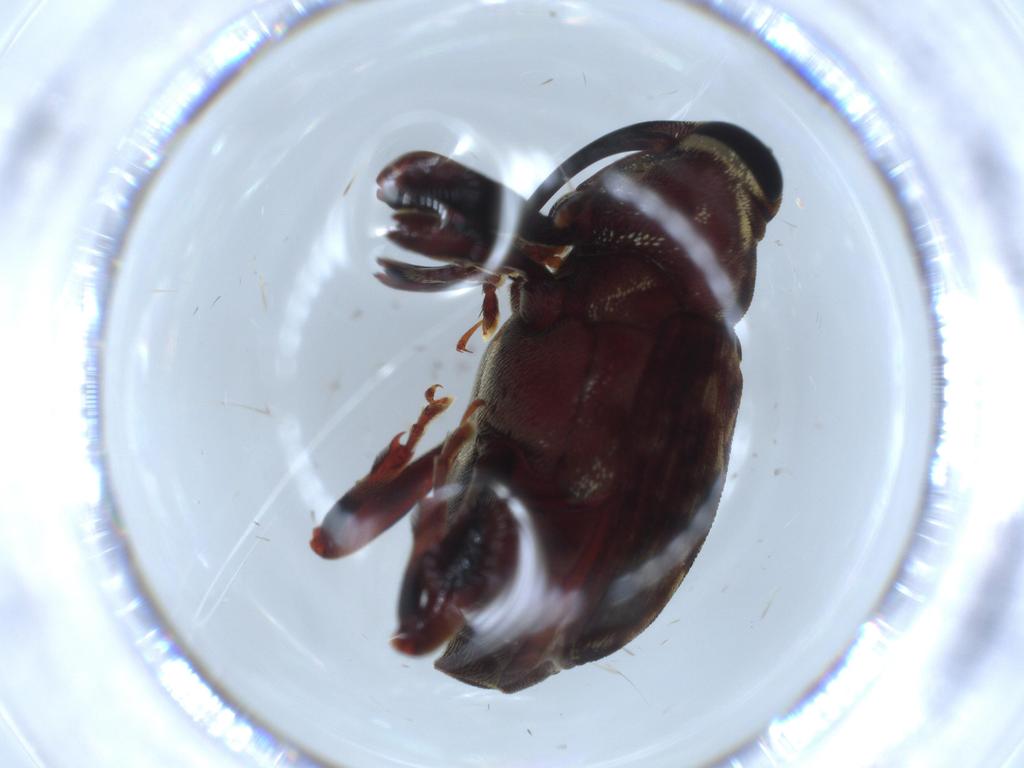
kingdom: Animalia
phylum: Arthropoda
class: Insecta
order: Coleoptera
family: Curculionidae
